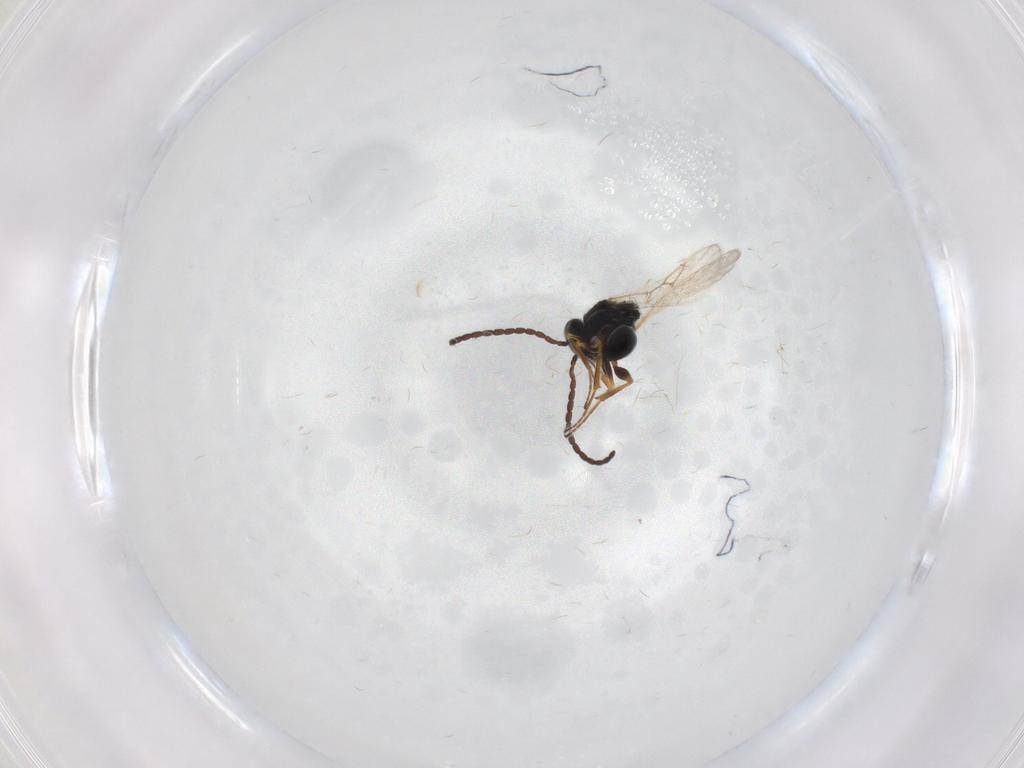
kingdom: Animalia
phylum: Arthropoda
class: Insecta
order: Hymenoptera
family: Figitidae
